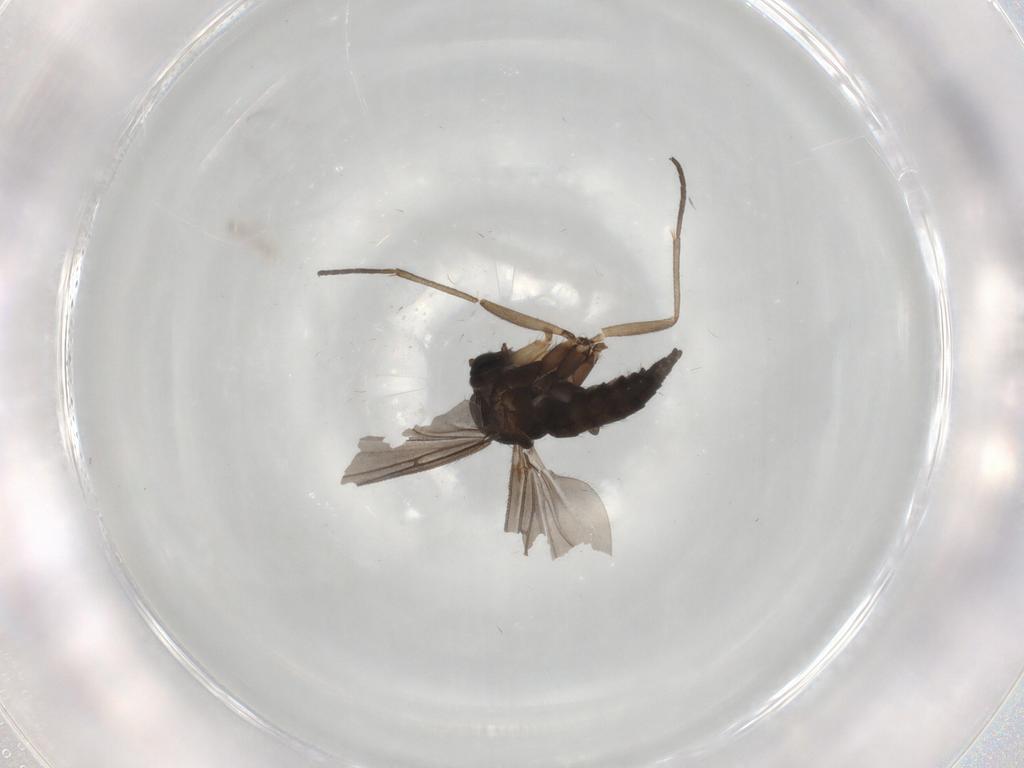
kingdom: Animalia
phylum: Arthropoda
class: Insecta
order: Diptera
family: Sciaridae
